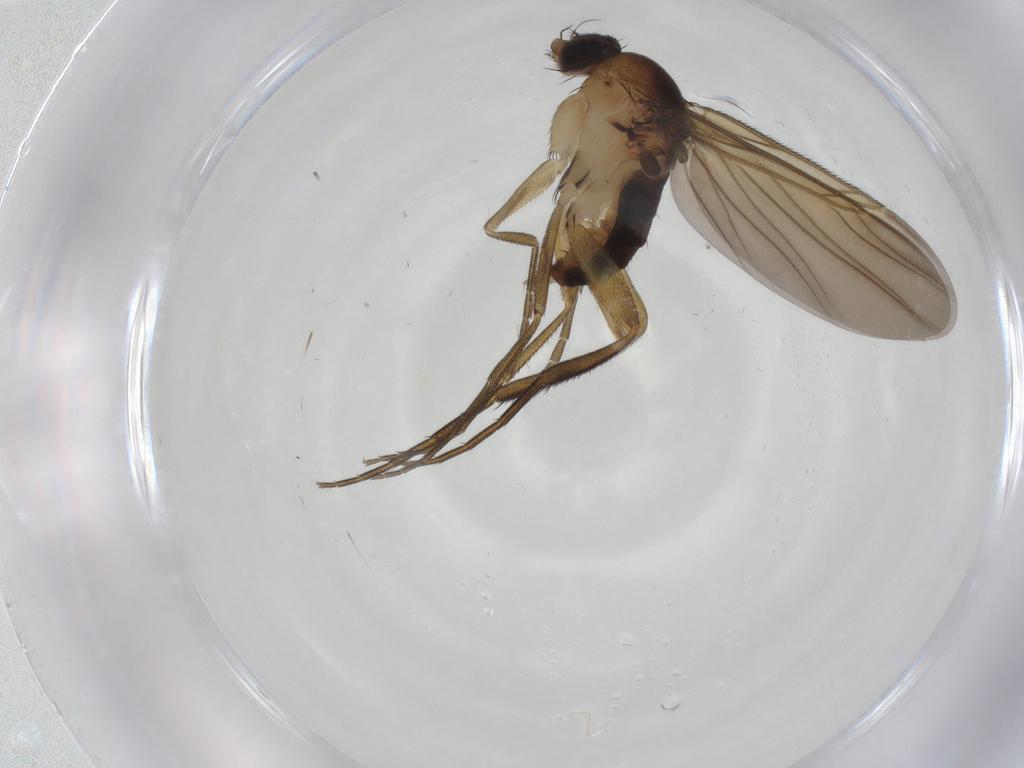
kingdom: Animalia
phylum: Arthropoda
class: Insecta
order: Diptera
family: Phoridae
